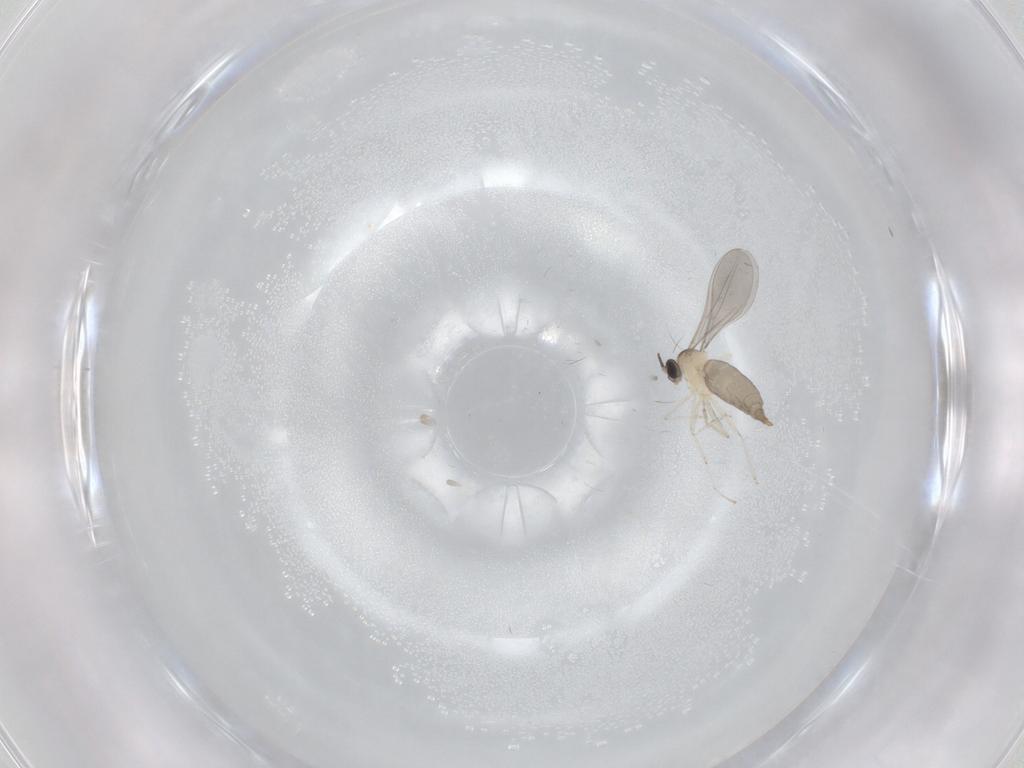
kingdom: Animalia
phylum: Arthropoda
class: Insecta
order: Diptera
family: Cecidomyiidae
